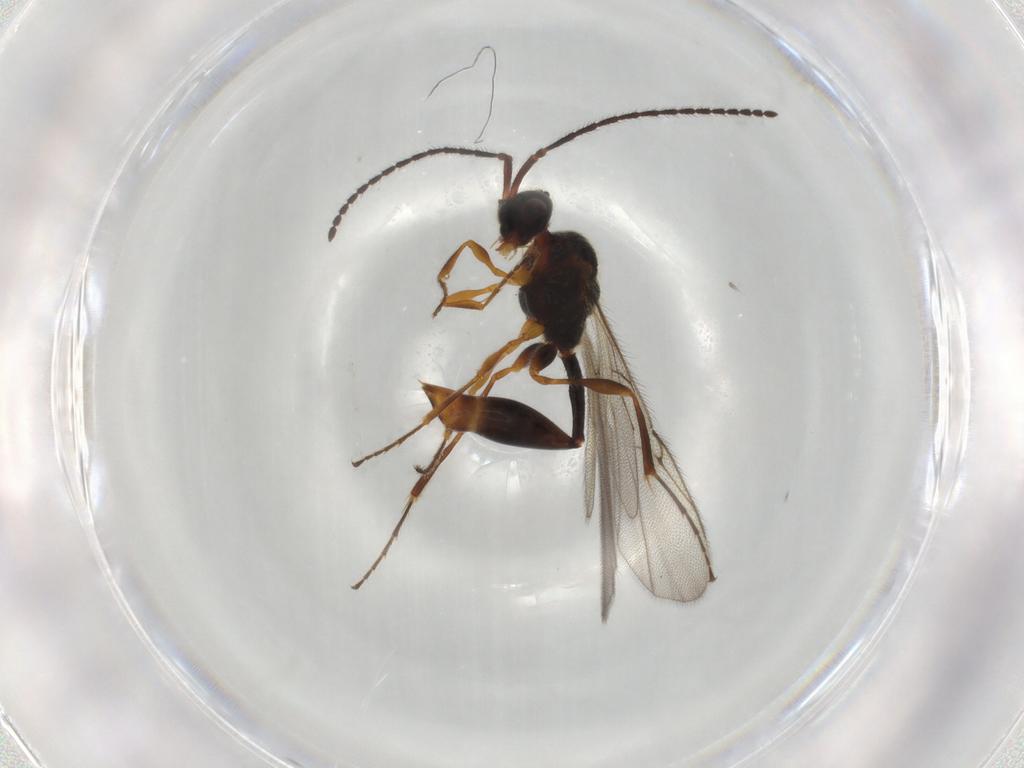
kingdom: Animalia
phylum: Arthropoda
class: Insecta
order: Hymenoptera
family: Diapriidae
